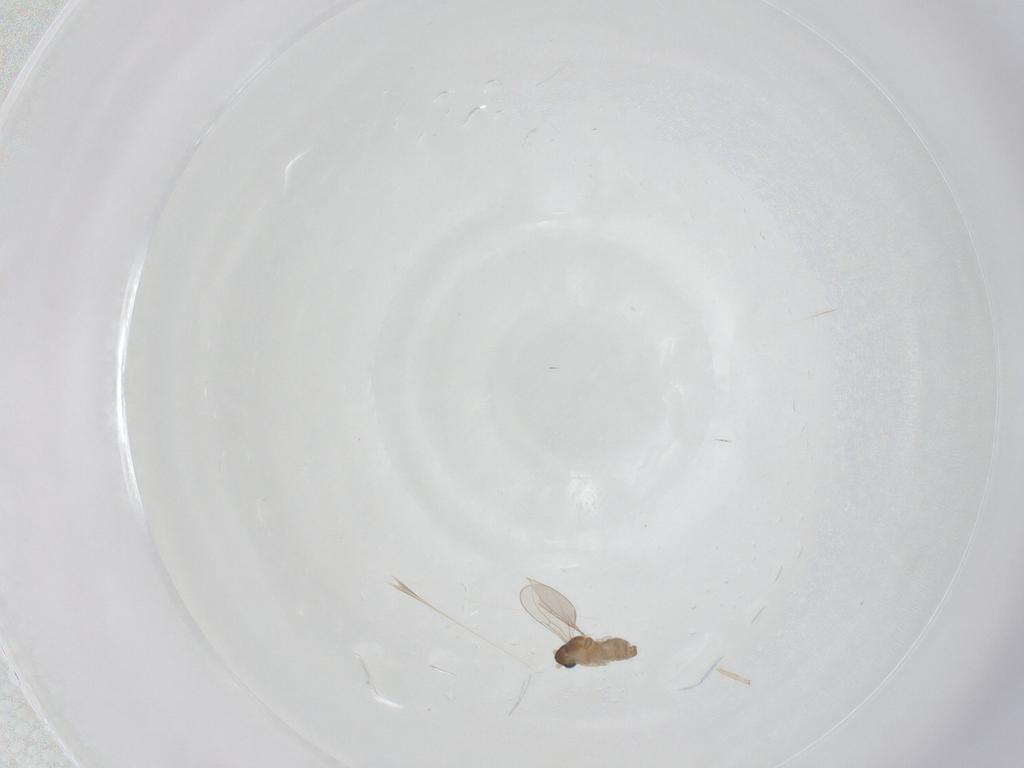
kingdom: Animalia
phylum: Arthropoda
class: Insecta
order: Diptera
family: Cecidomyiidae
